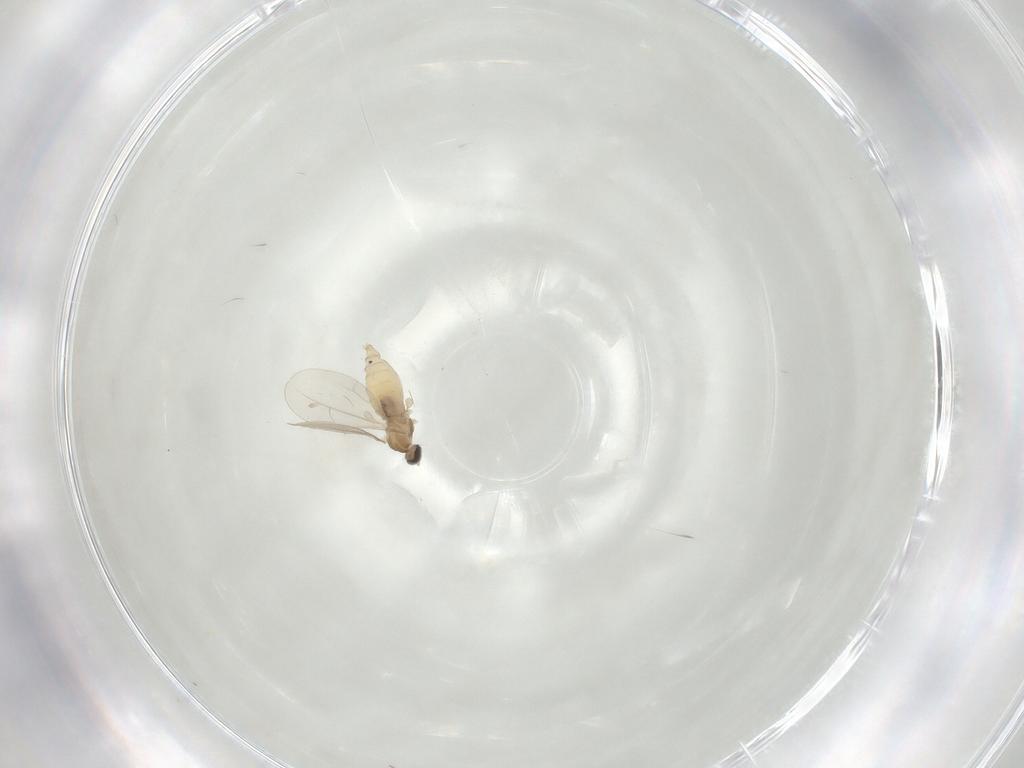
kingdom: Animalia
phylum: Arthropoda
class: Insecta
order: Diptera
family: Cecidomyiidae
